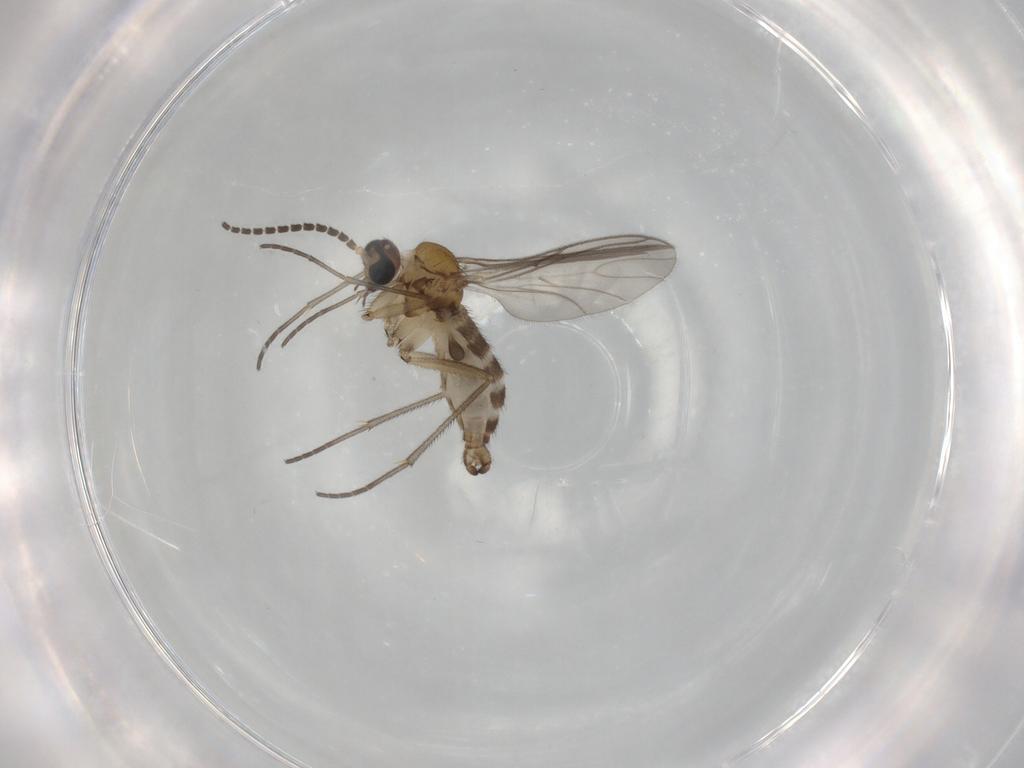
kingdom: Animalia
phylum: Arthropoda
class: Insecta
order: Diptera
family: Sciaridae
